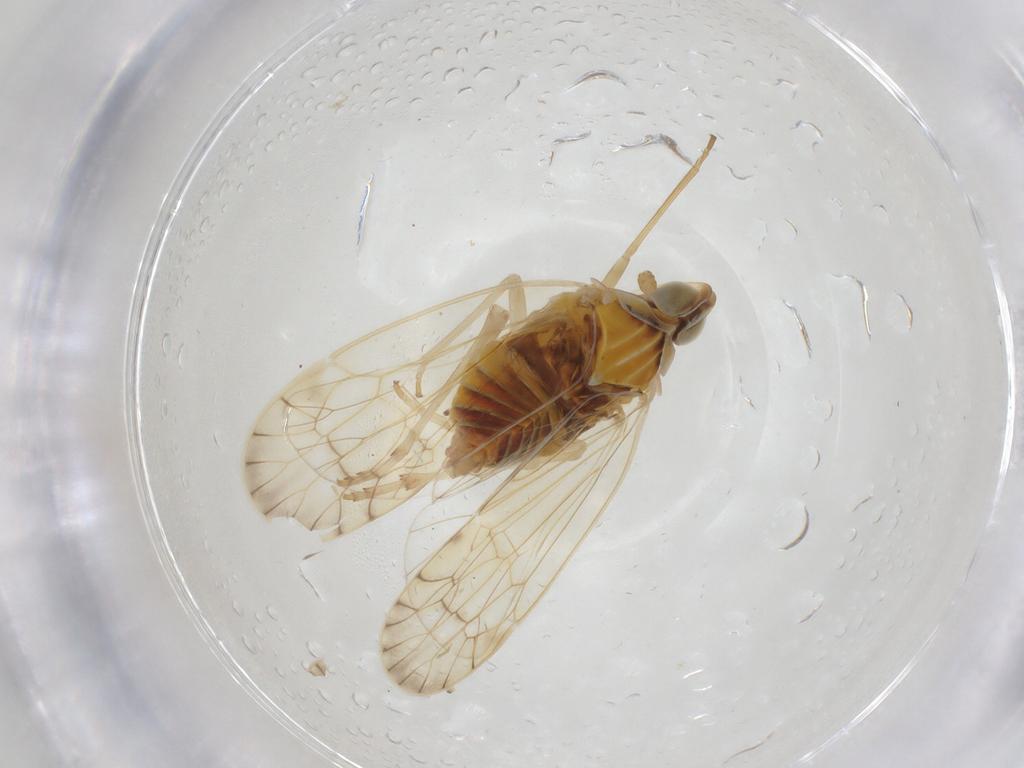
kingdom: Animalia
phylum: Arthropoda
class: Insecta
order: Hemiptera
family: Kinnaridae
